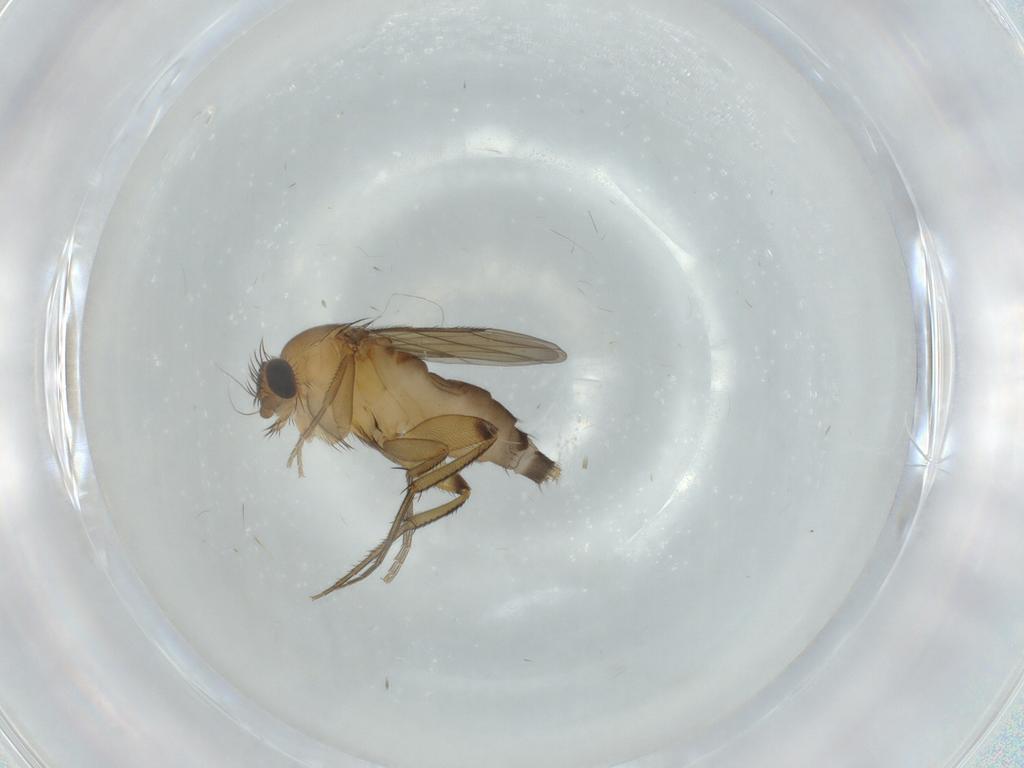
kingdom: Animalia
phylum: Arthropoda
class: Insecta
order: Diptera
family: Phoridae
